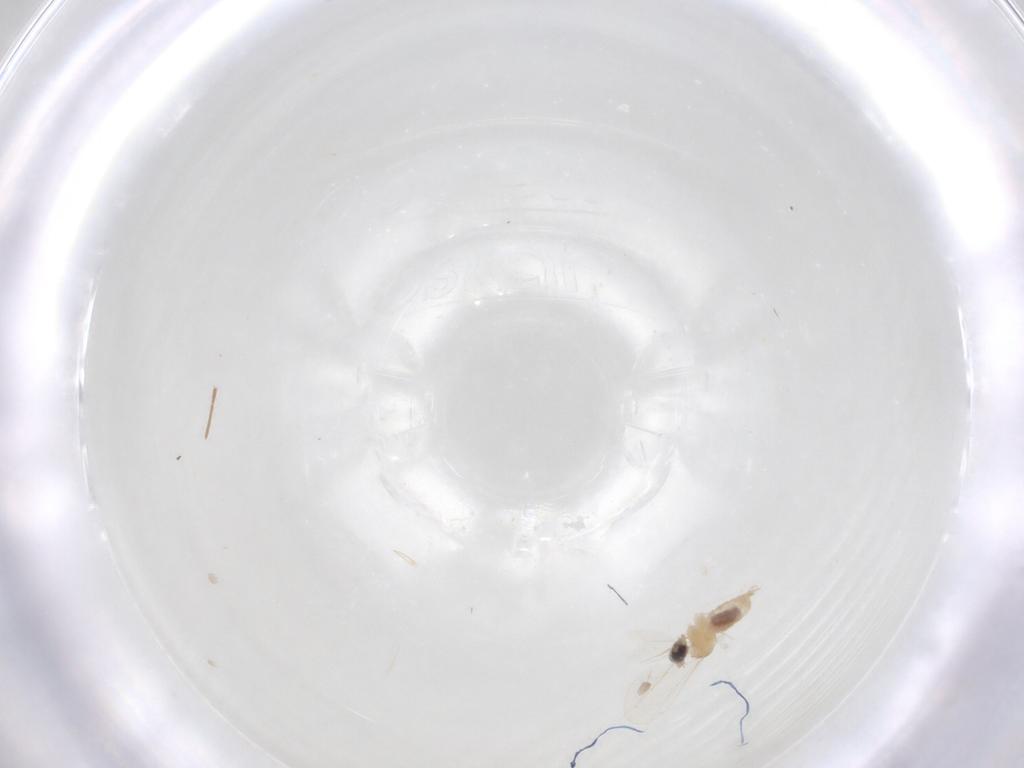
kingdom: Animalia
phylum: Arthropoda
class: Insecta
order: Diptera
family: Cecidomyiidae
